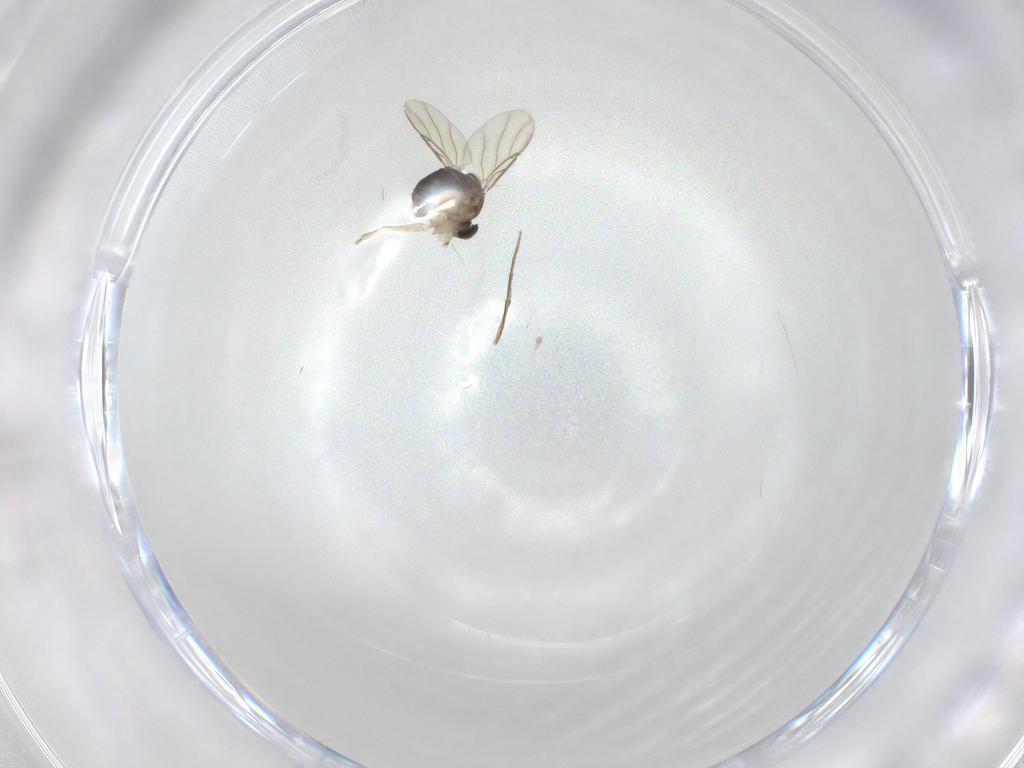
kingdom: Animalia
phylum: Arthropoda
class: Insecta
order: Diptera
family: Phoridae
